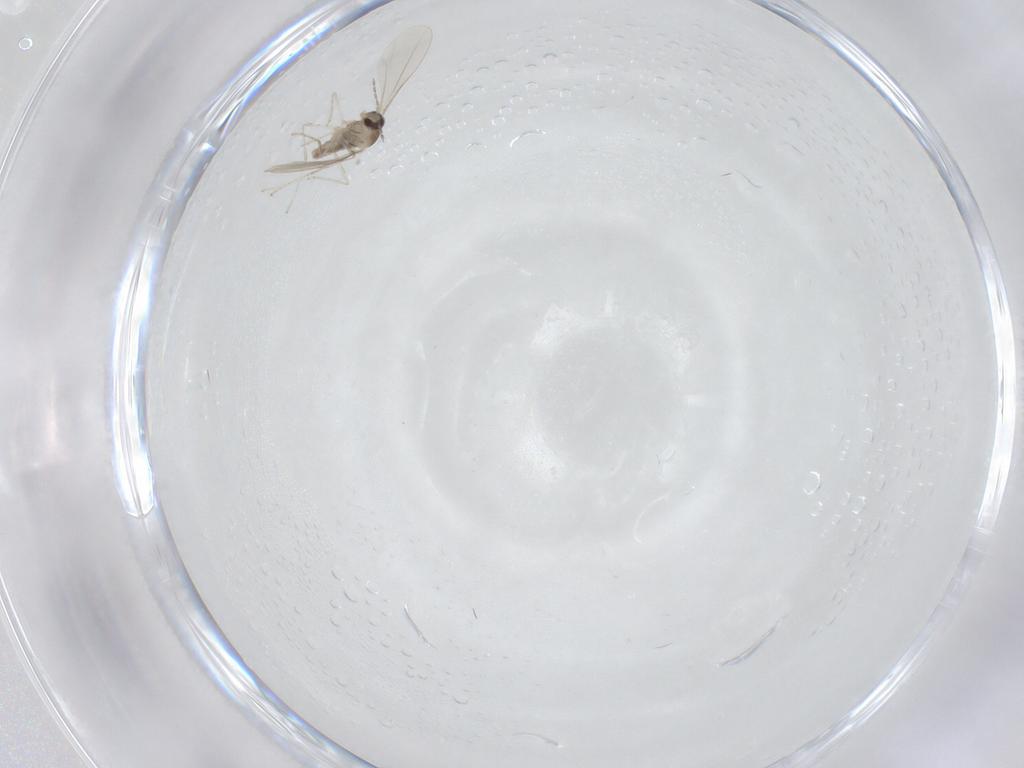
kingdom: Animalia
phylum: Arthropoda
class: Insecta
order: Diptera
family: Cecidomyiidae
